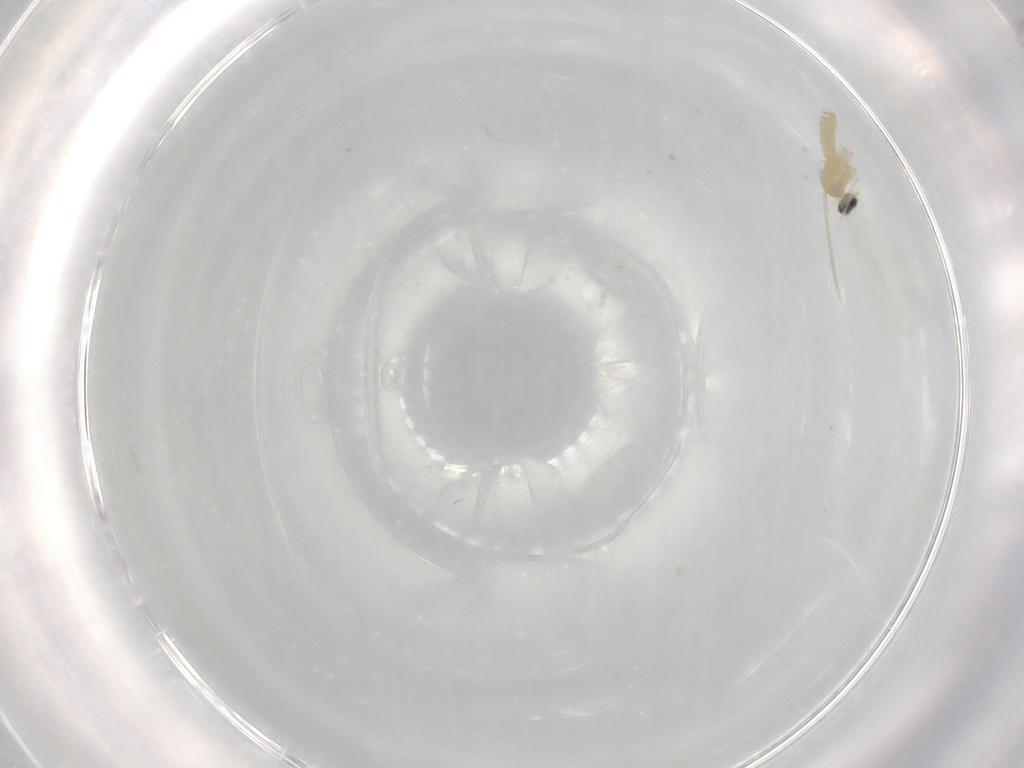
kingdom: Animalia
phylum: Arthropoda
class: Insecta
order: Diptera
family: Cecidomyiidae
